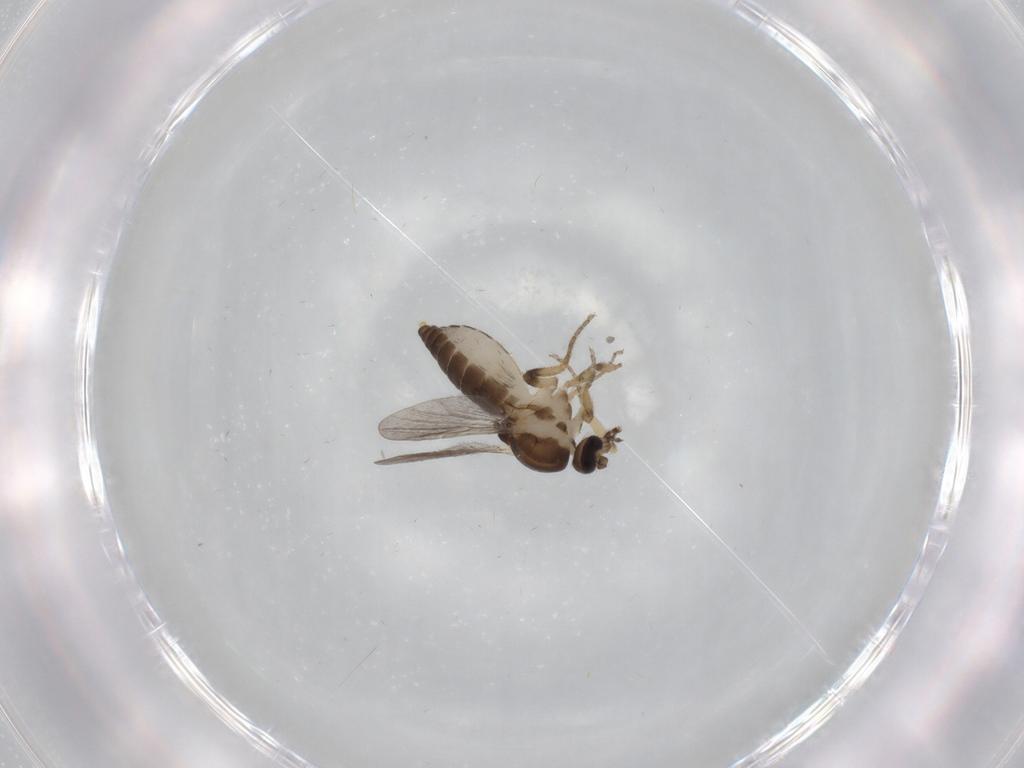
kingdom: Animalia
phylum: Arthropoda
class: Insecta
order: Diptera
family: Ceratopogonidae
